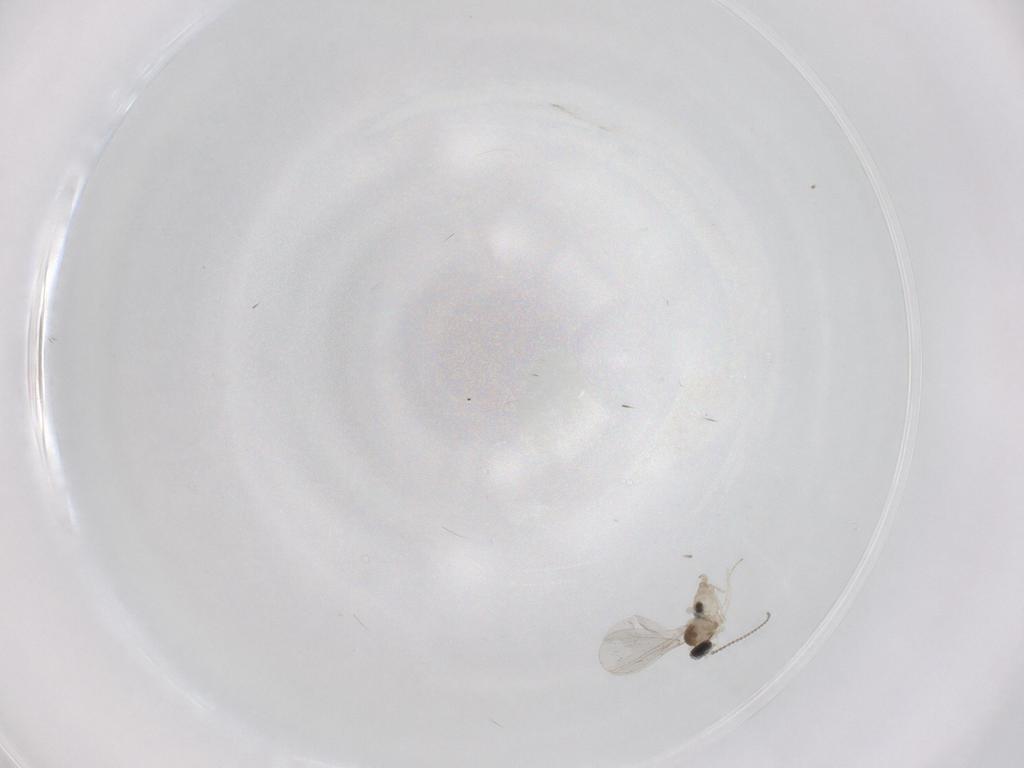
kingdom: Animalia
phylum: Arthropoda
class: Insecta
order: Diptera
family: Cecidomyiidae
